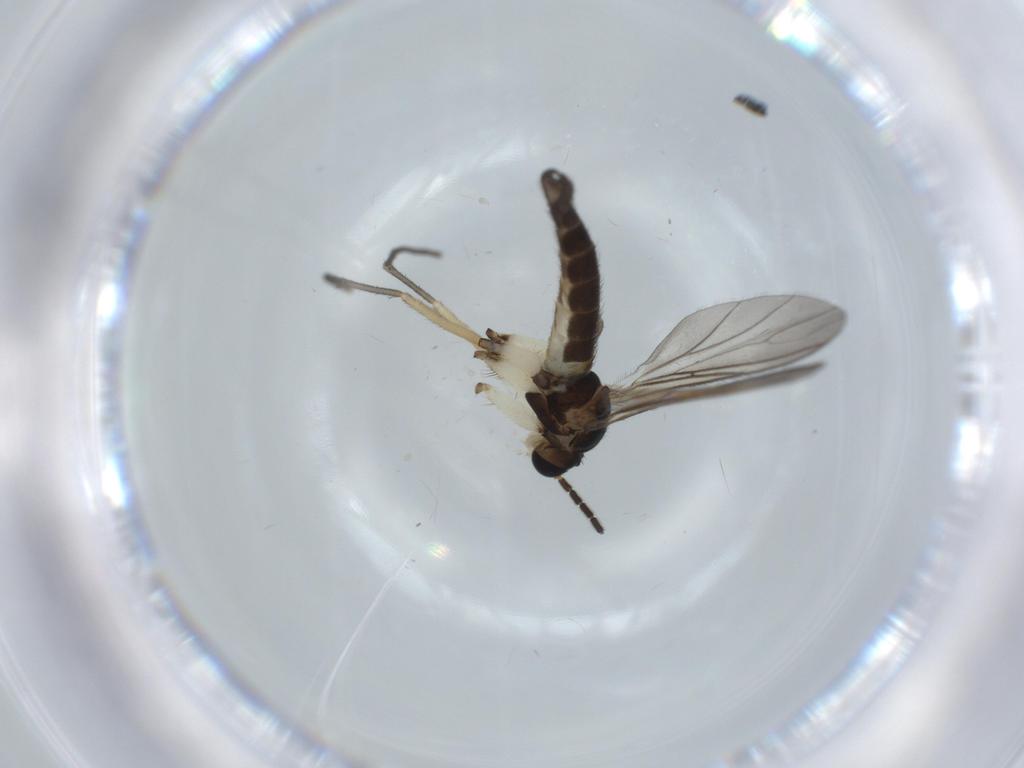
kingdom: Animalia
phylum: Arthropoda
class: Insecta
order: Diptera
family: Sciaridae
